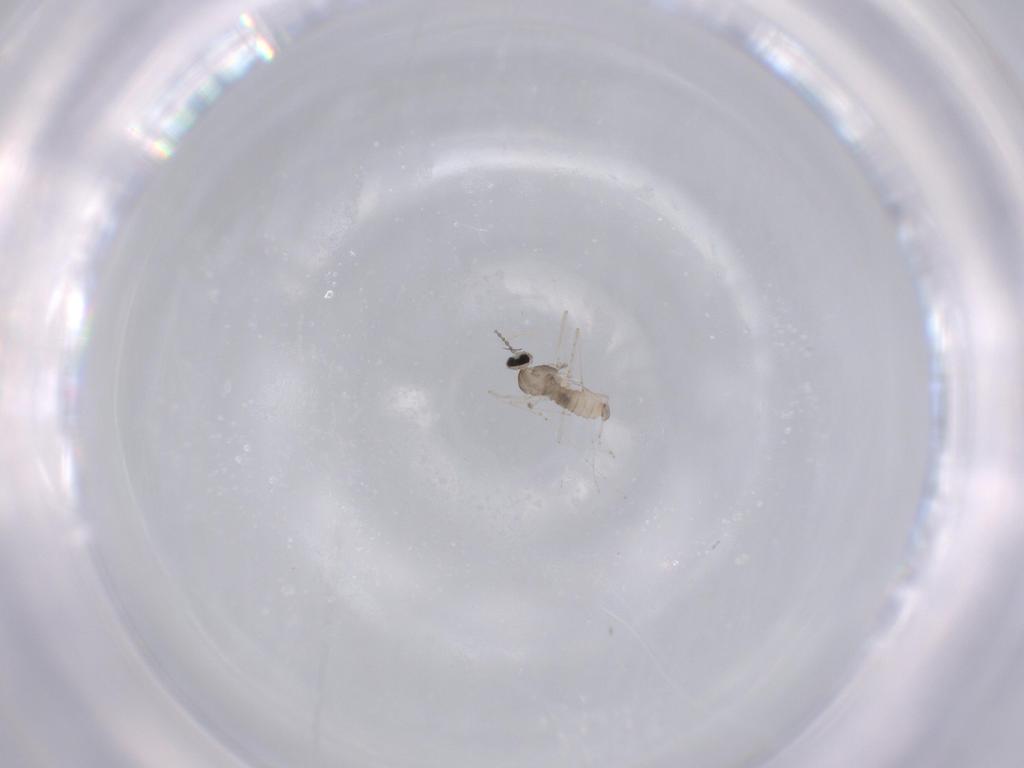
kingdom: Animalia
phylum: Arthropoda
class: Insecta
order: Diptera
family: Cecidomyiidae
